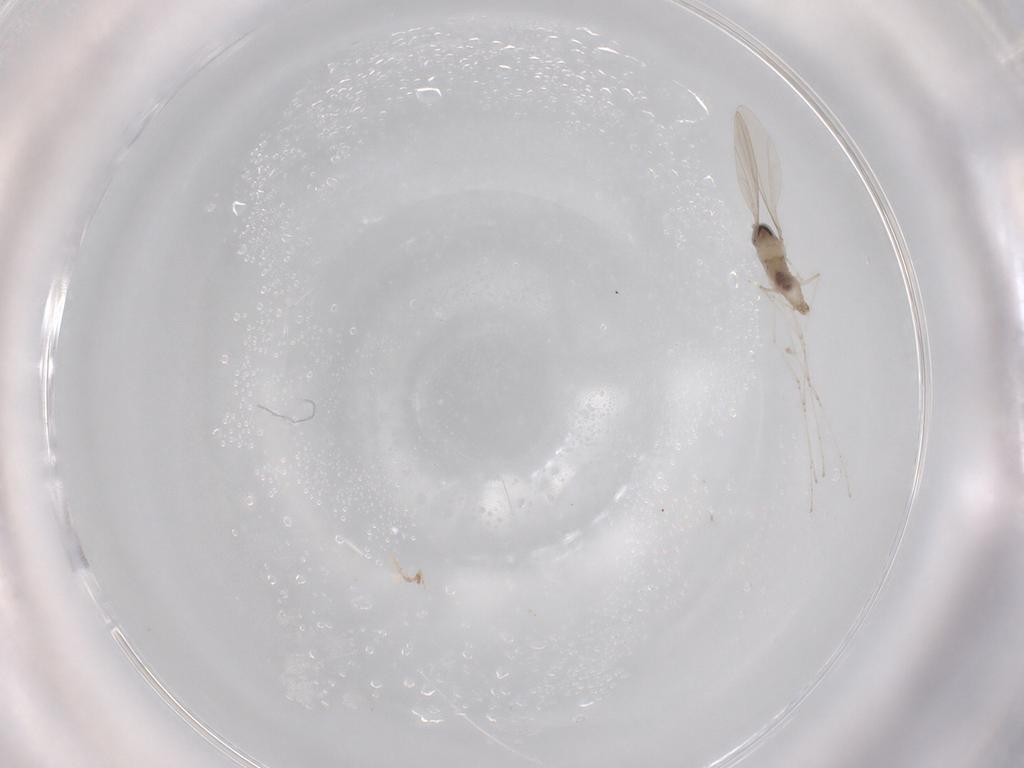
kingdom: Animalia
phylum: Arthropoda
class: Insecta
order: Diptera
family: Cecidomyiidae
